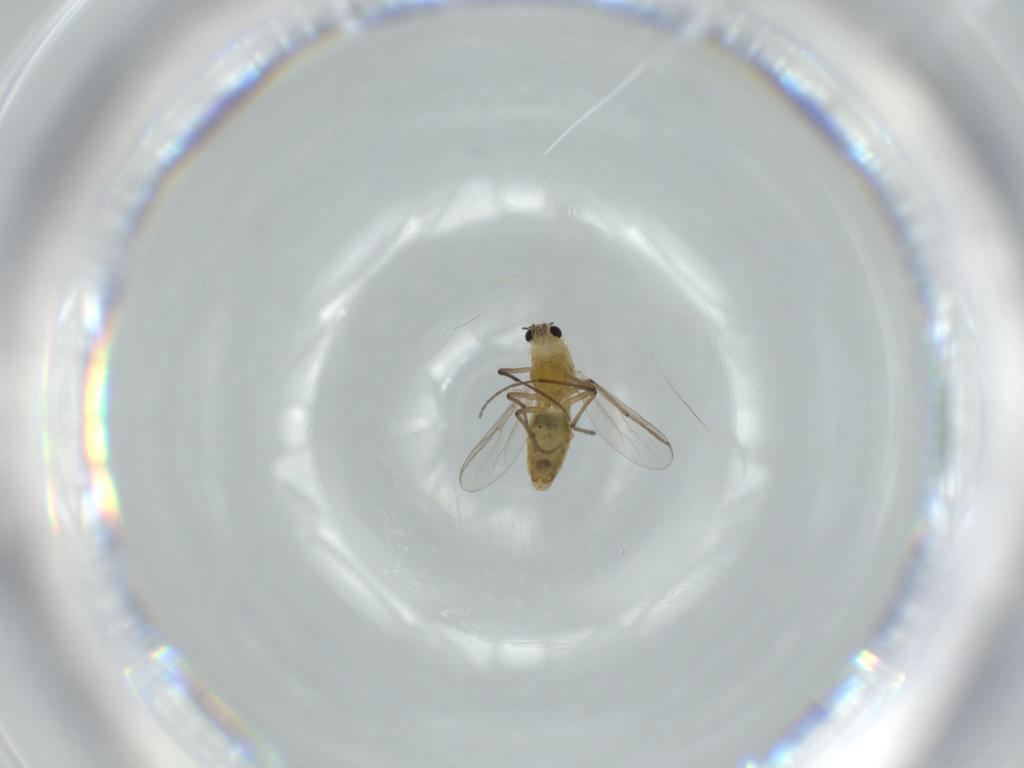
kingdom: Animalia
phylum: Arthropoda
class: Insecta
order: Diptera
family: Chironomidae
